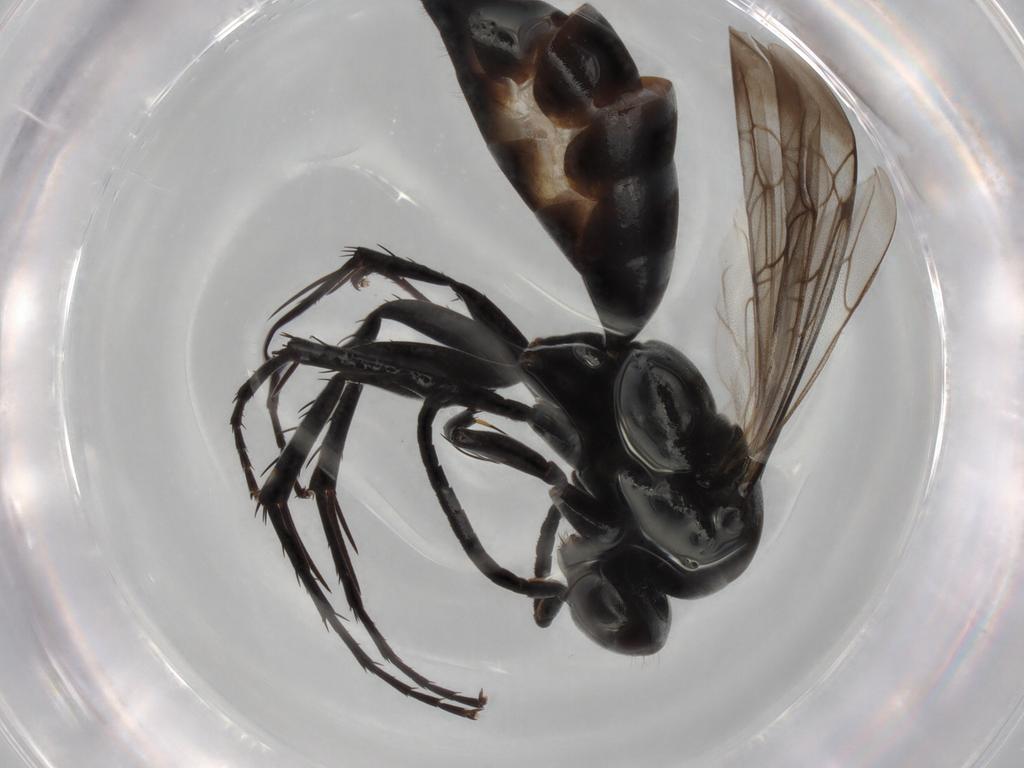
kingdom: Animalia
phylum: Arthropoda
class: Insecta
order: Hymenoptera
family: Pompilidae
